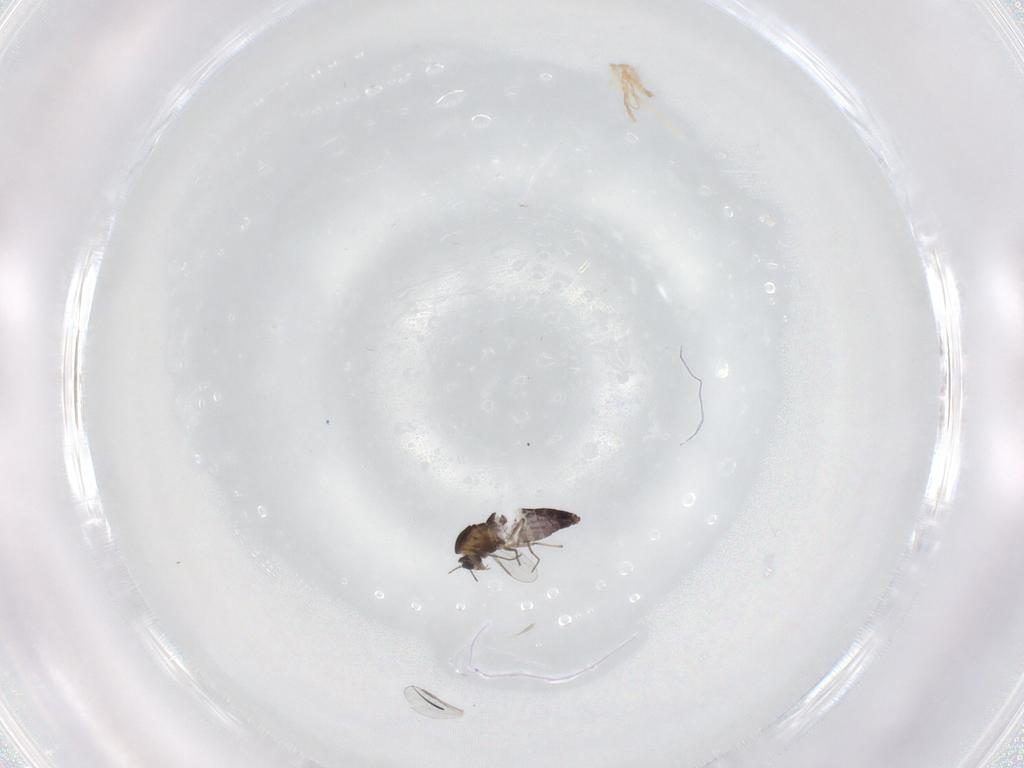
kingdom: Animalia
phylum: Arthropoda
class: Insecta
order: Diptera
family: Chironomidae
